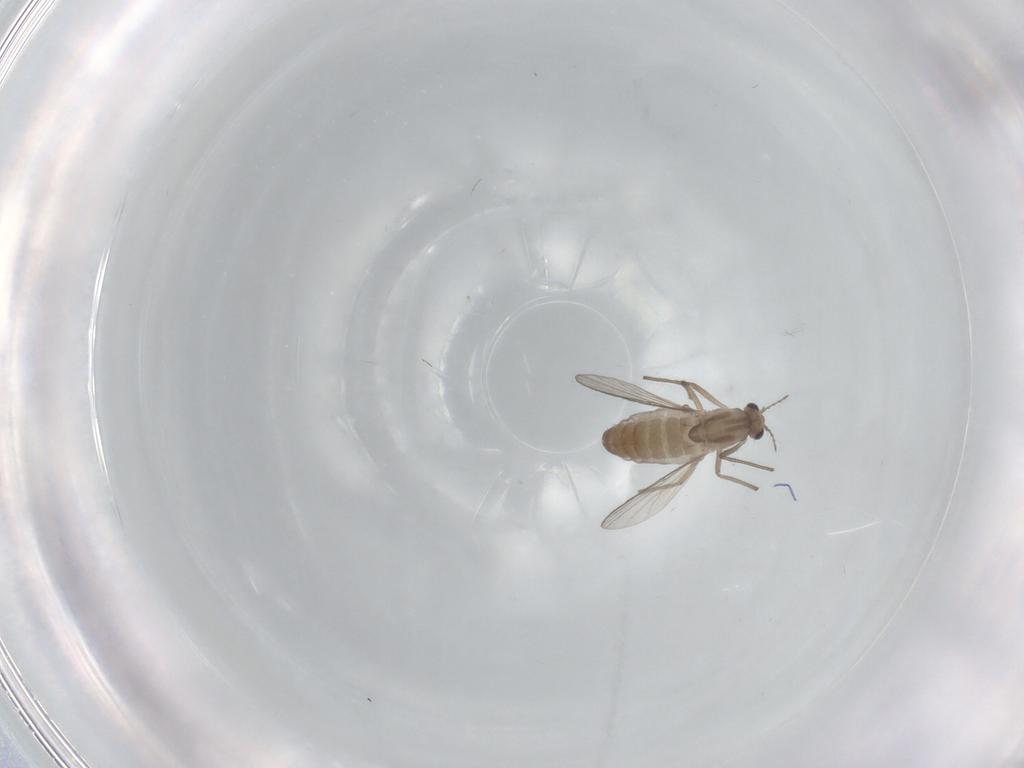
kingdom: Animalia
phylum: Arthropoda
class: Insecta
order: Diptera
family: Chironomidae
